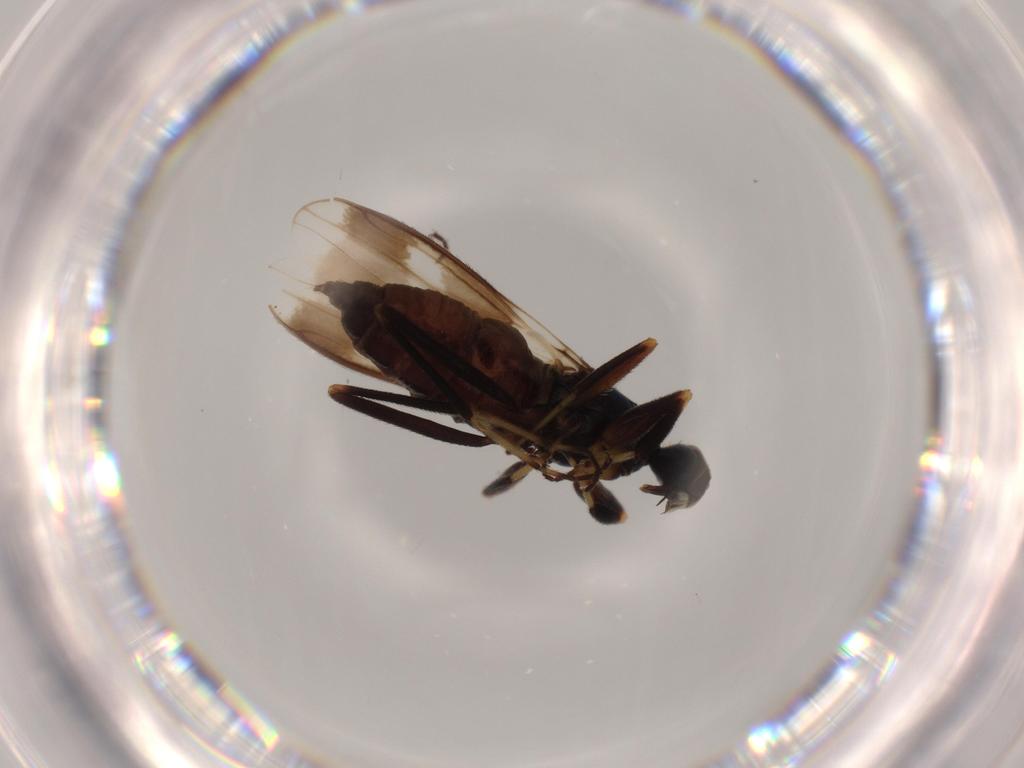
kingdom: Animalia
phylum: Arthropoda
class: Insecta
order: Diptera
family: Hybotidae
